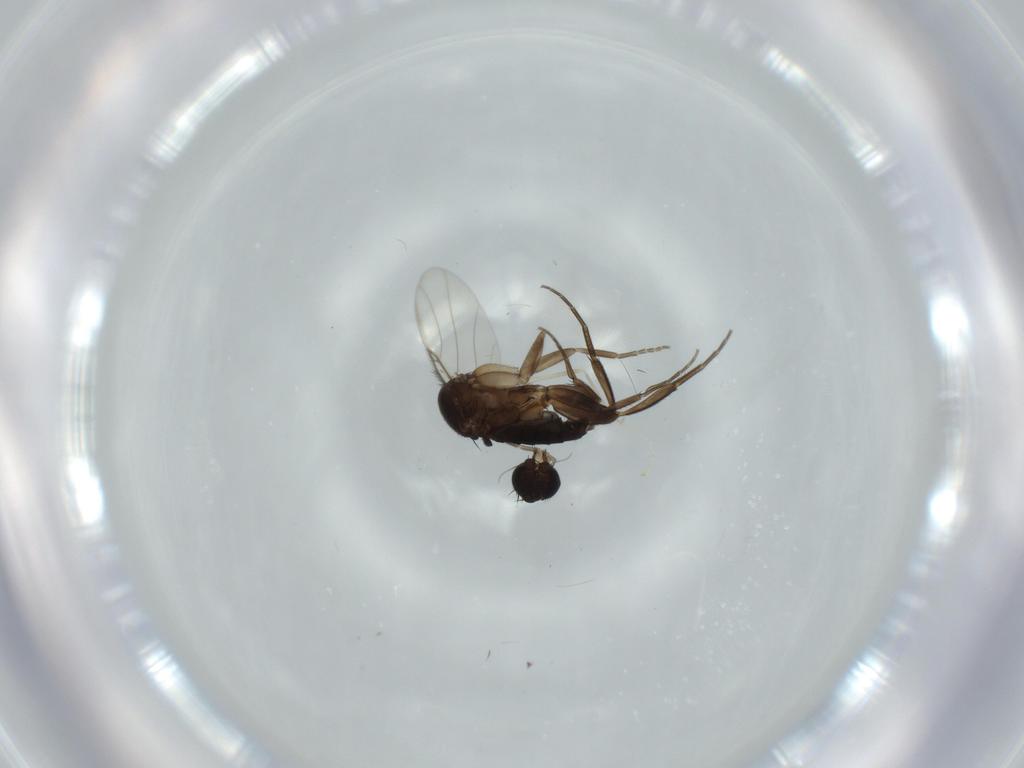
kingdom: Animalia
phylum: Arthropoda
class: Insecta
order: Diptera
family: Phoridae
